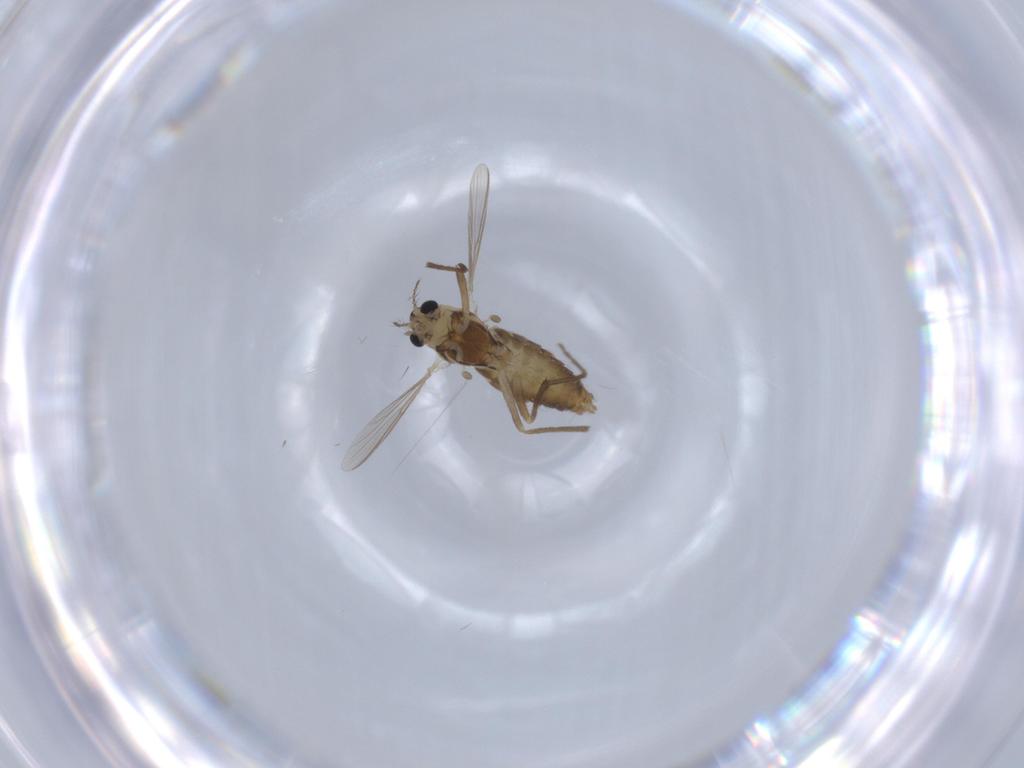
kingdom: Animalia
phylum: Arthropoda
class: Insecta
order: Diptera
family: Chironomidae
